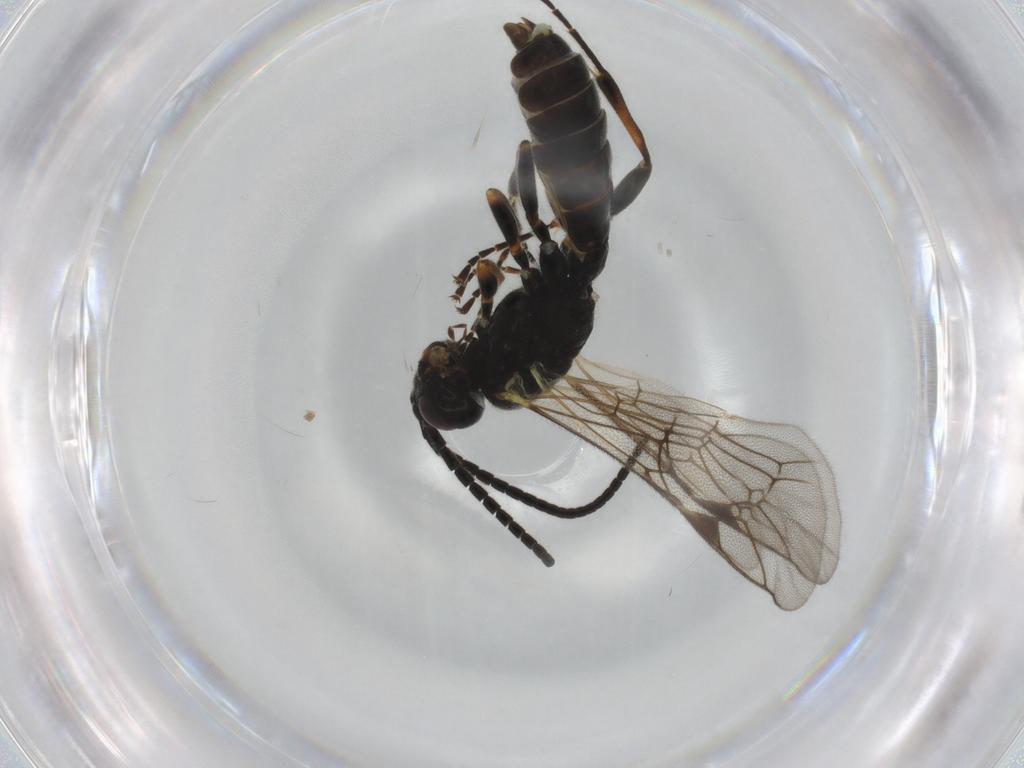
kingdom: Animalia
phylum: Arthropoda
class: Insecta
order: Hymenoptera
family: Ichneumonidae
